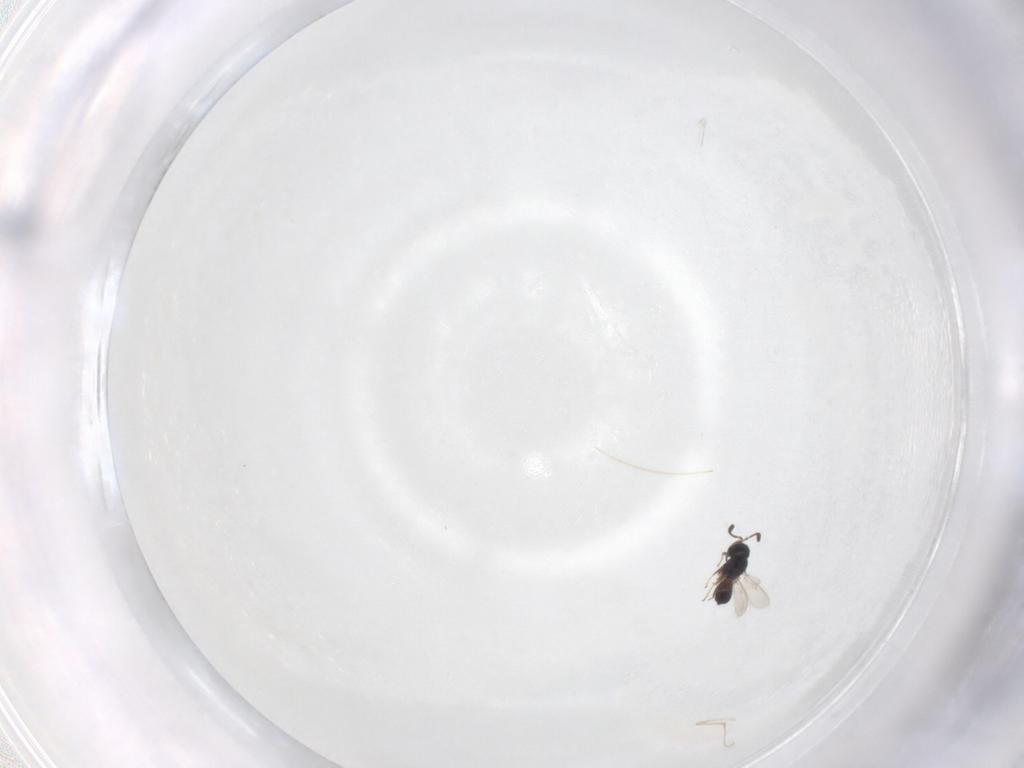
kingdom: Animalia
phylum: Arthropoda
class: Insecta
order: Hymenoptera
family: Scelionidae
